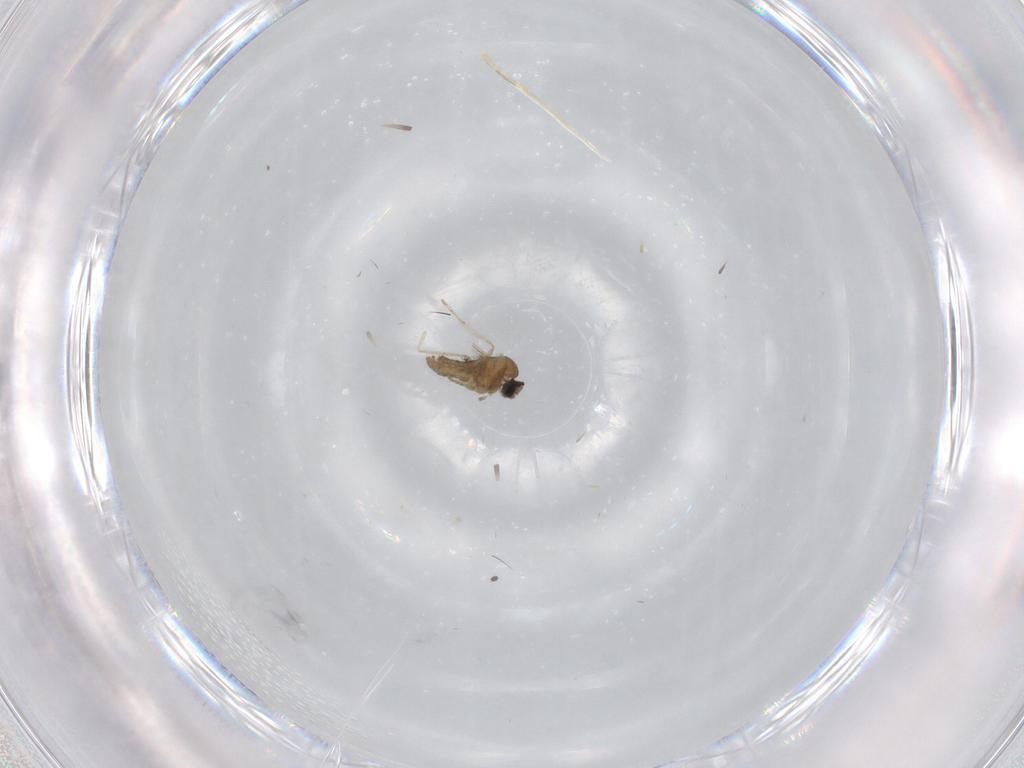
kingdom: Animalia
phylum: Arthropoda
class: Insecta
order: Diptera
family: Cecidomyiidae
